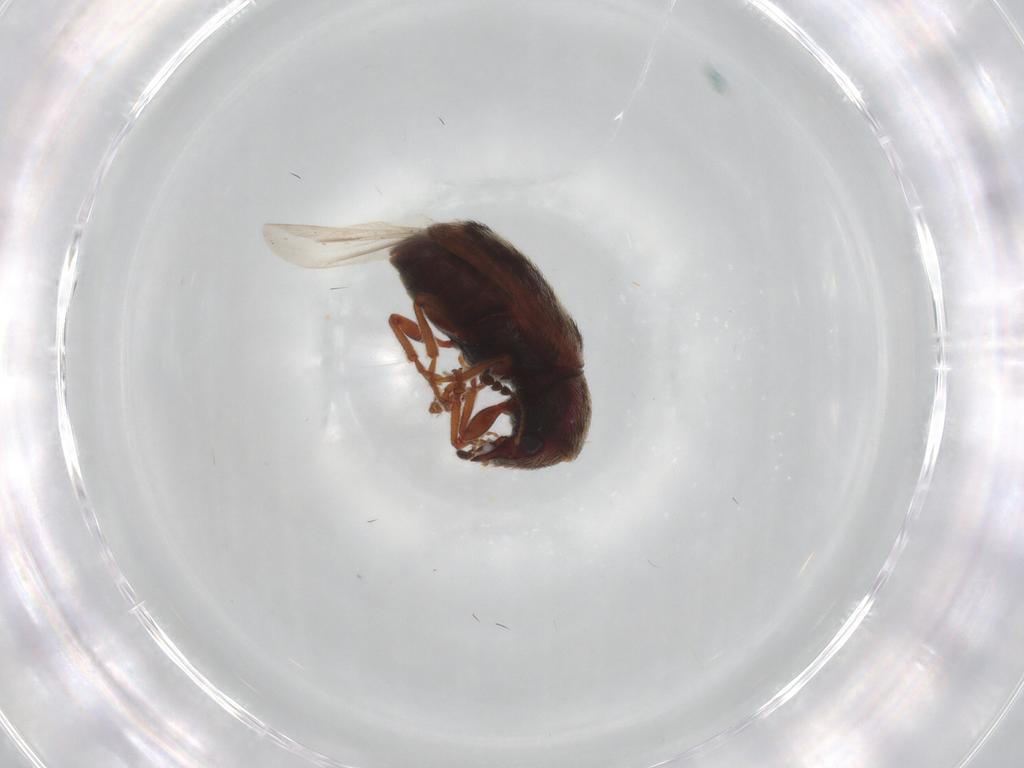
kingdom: Animalia
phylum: Arthropoda
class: Insecta
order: Coleoptera
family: Anthribidae
